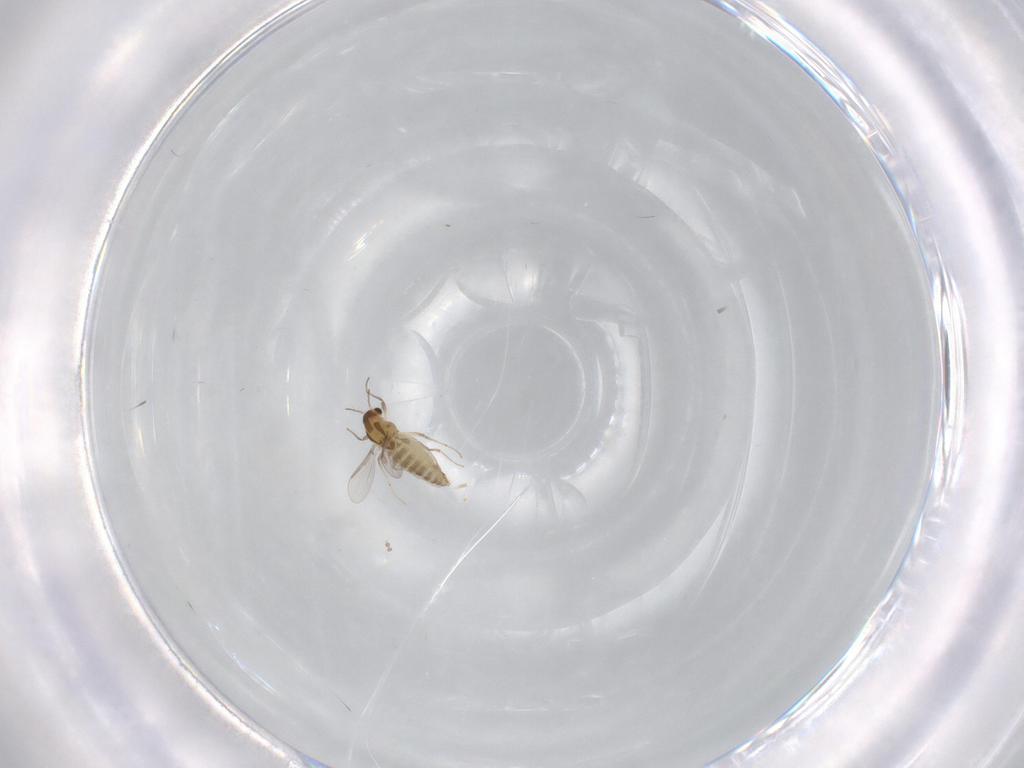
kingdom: Animalia
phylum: Arthropoda
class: Insecta
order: Diptera
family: Chironomidae
